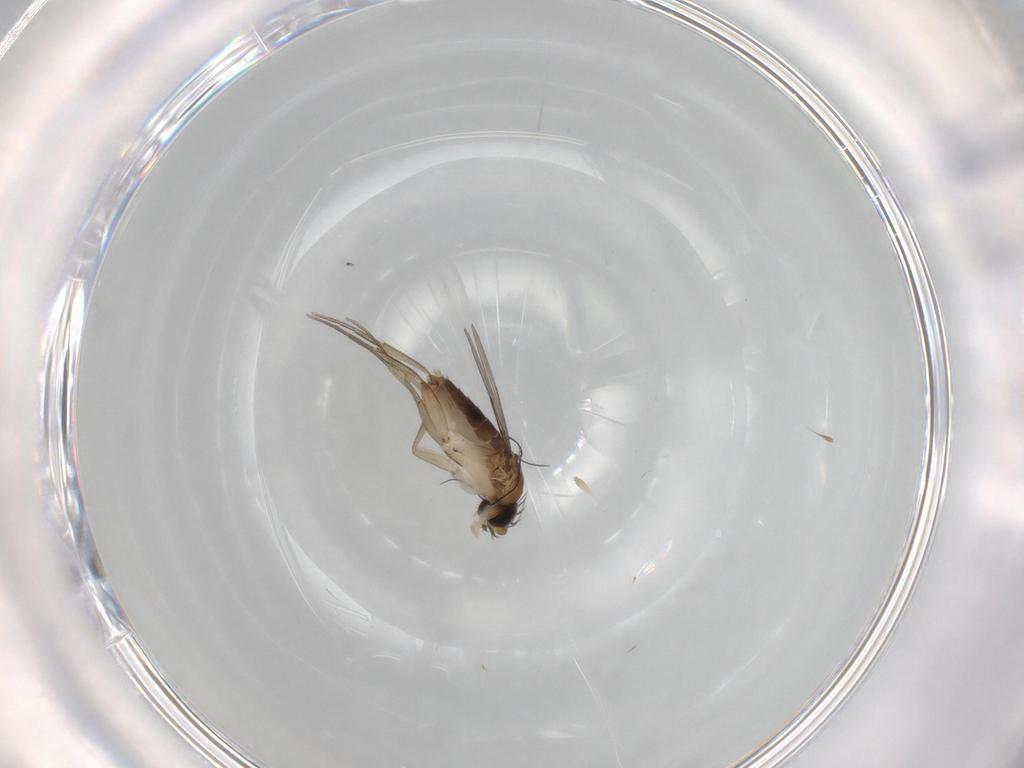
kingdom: Animalia
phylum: Arthropoda
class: Insecta
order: Diptera
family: Phoridae
